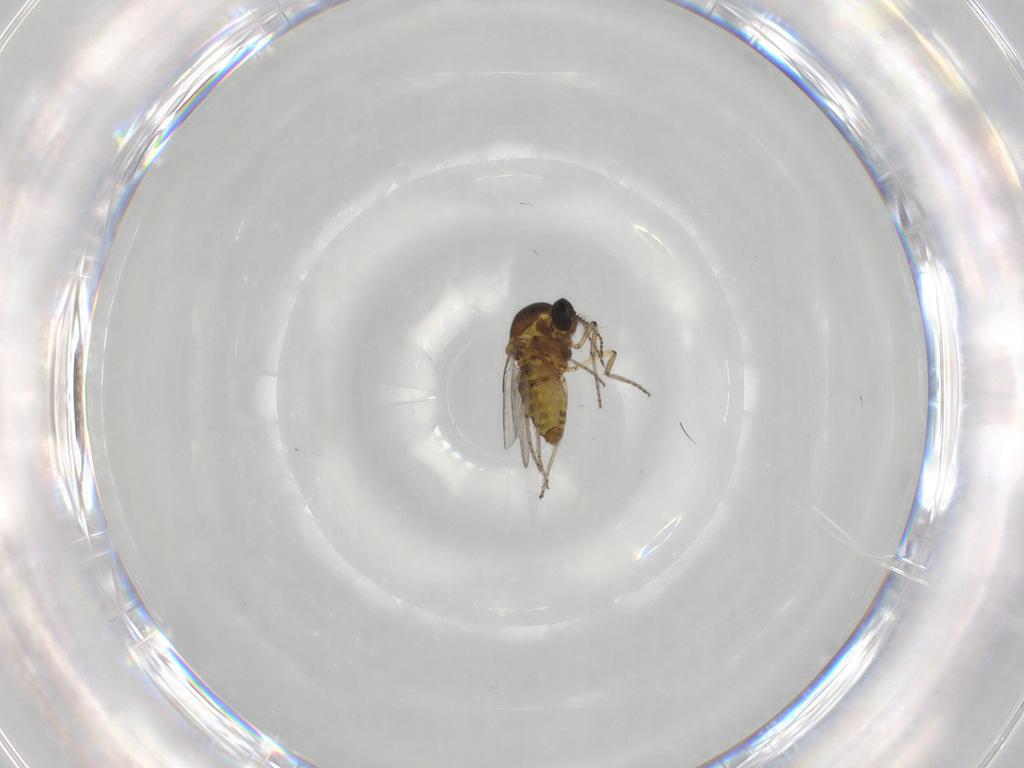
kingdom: Animalia
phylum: Arthropoda
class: Insecta
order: Diptera
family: Ceratopogonidae
